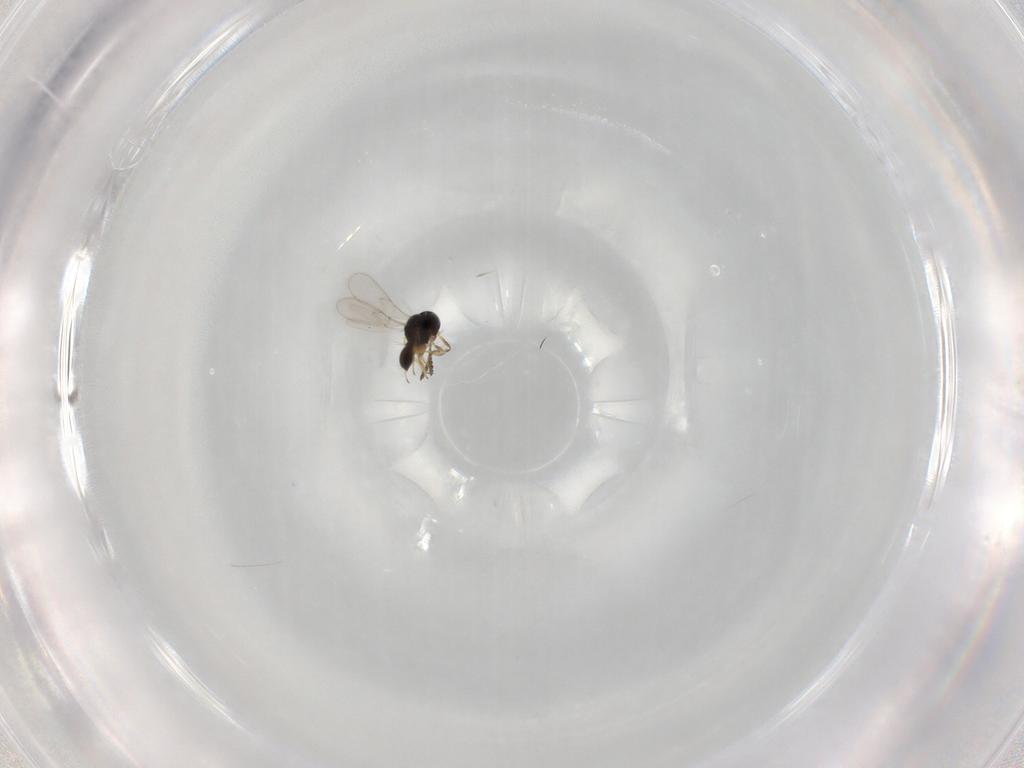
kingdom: Animalia
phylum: Arthropoda
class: Insecta
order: Hymenoptera
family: Scelionidae
